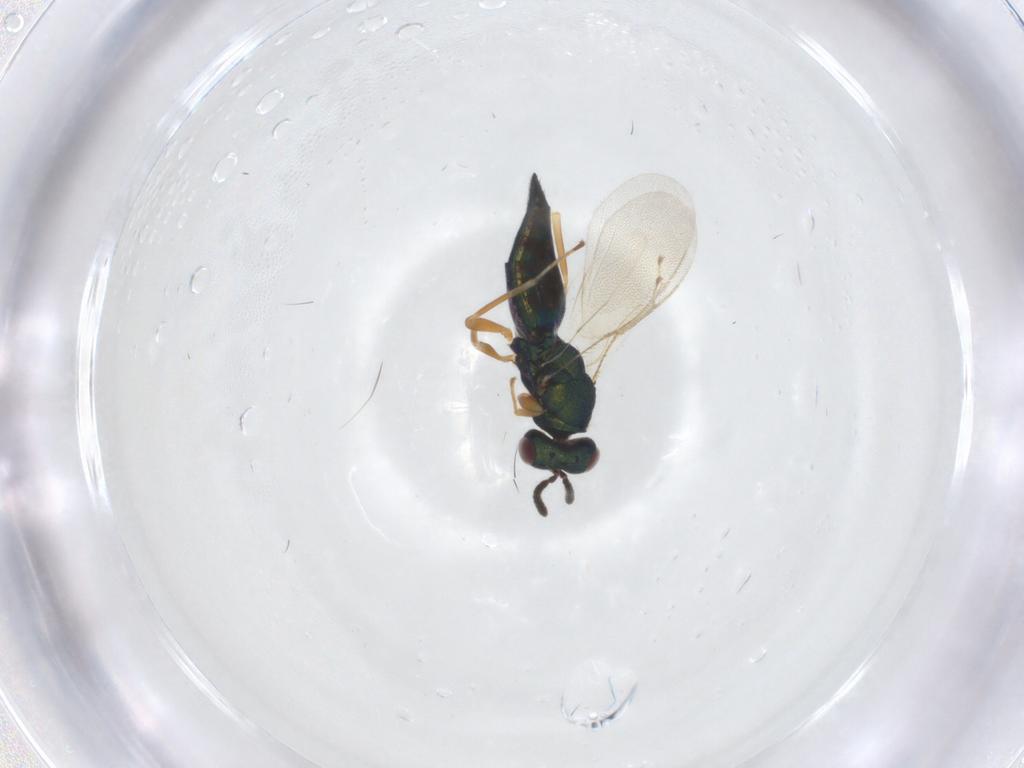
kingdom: Animalia
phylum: Arthropoda
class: Insecta
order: Hymenoptera
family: Pteromalidae
